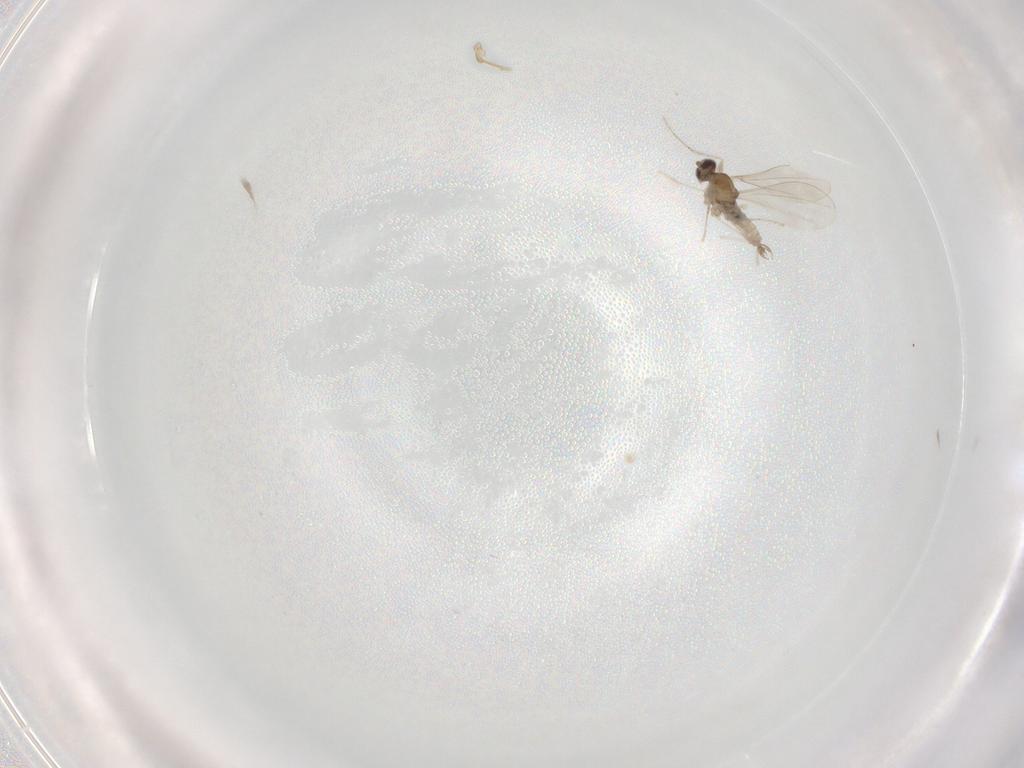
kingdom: Animalia
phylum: Arthropoda
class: Insecta
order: Diptera
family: Cecidomyiidae
